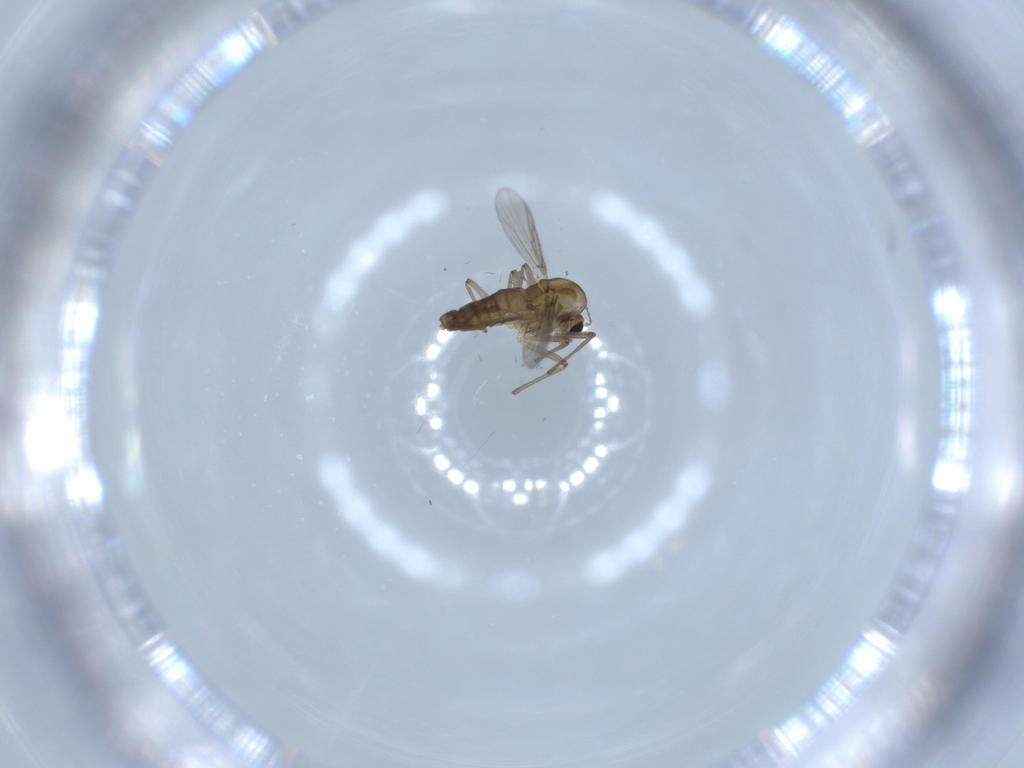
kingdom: Animalia
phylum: Arthropoda
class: Insecta
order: Diptera
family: Chironomidae
